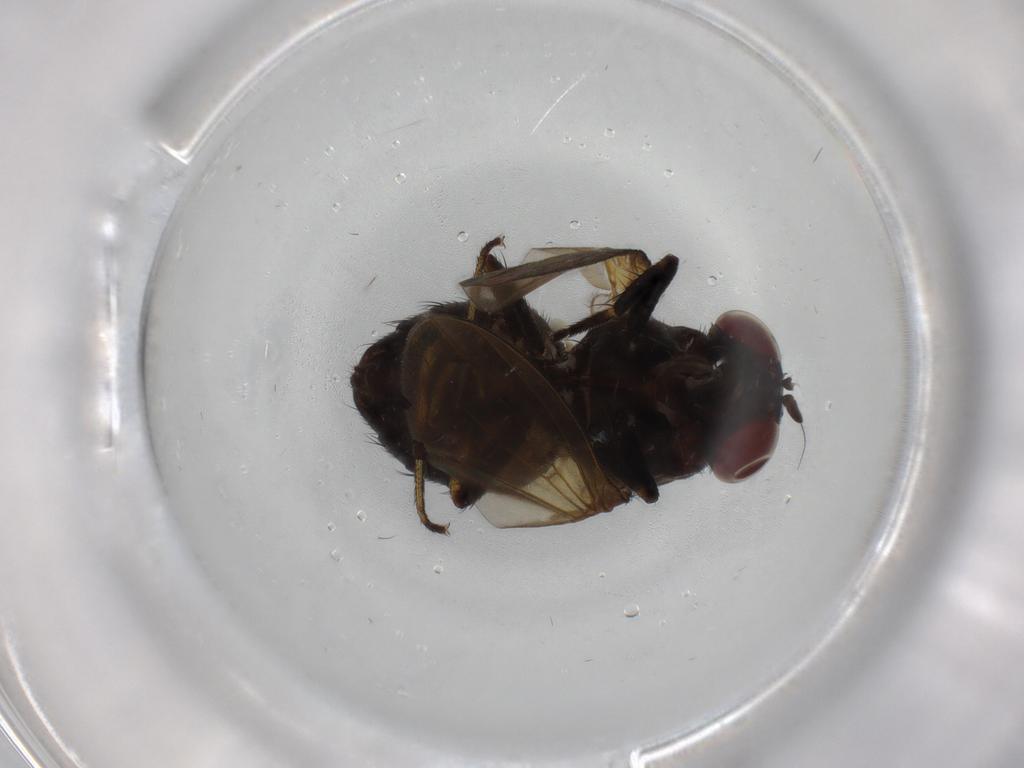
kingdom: Animalia
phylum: Arthropoda
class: Insecta
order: Diptera
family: Lauxaniidae
